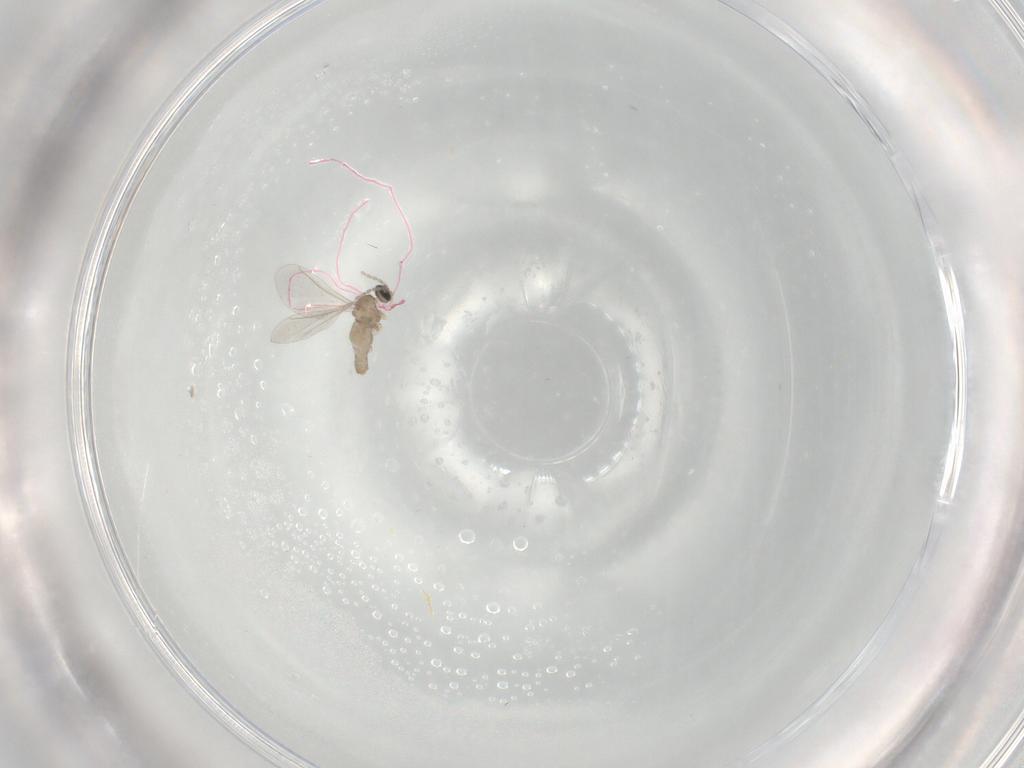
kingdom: Animalia
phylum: Arthropoda
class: Insecta
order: Diptera
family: Cecidomyiidae
